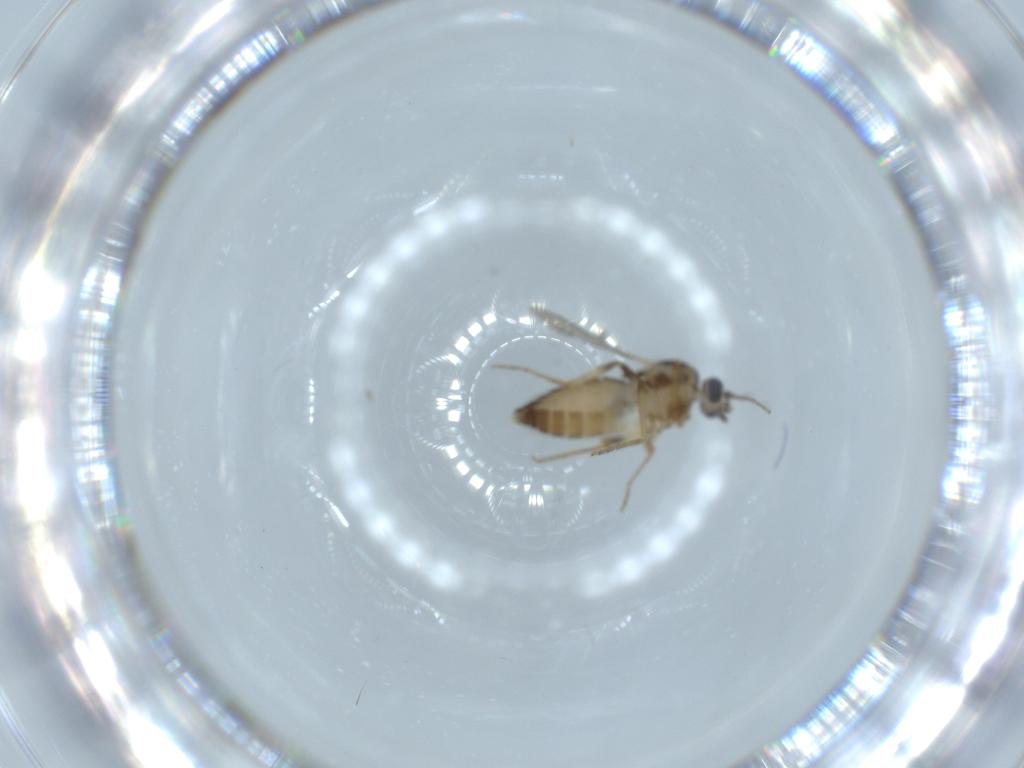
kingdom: Animalia
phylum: Arthropoda
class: Insecta
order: Diptera
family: Ceratopogonidae
